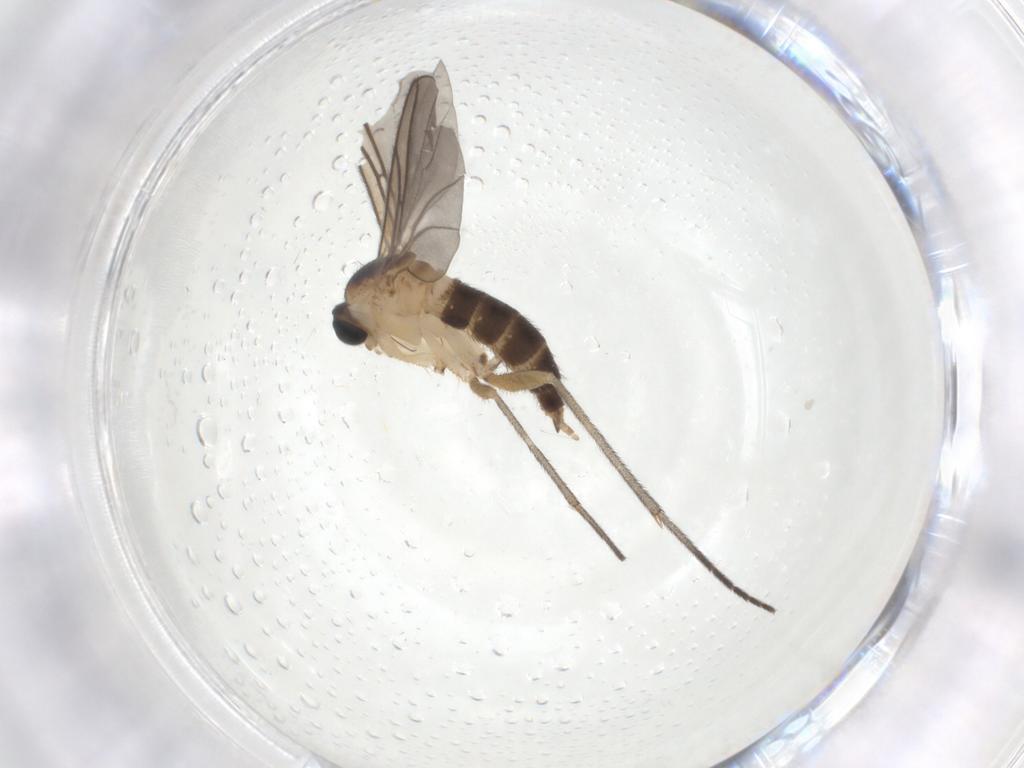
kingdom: Animalia
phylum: Arthropoda
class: Insecta
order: Diptera
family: Sciaridae
